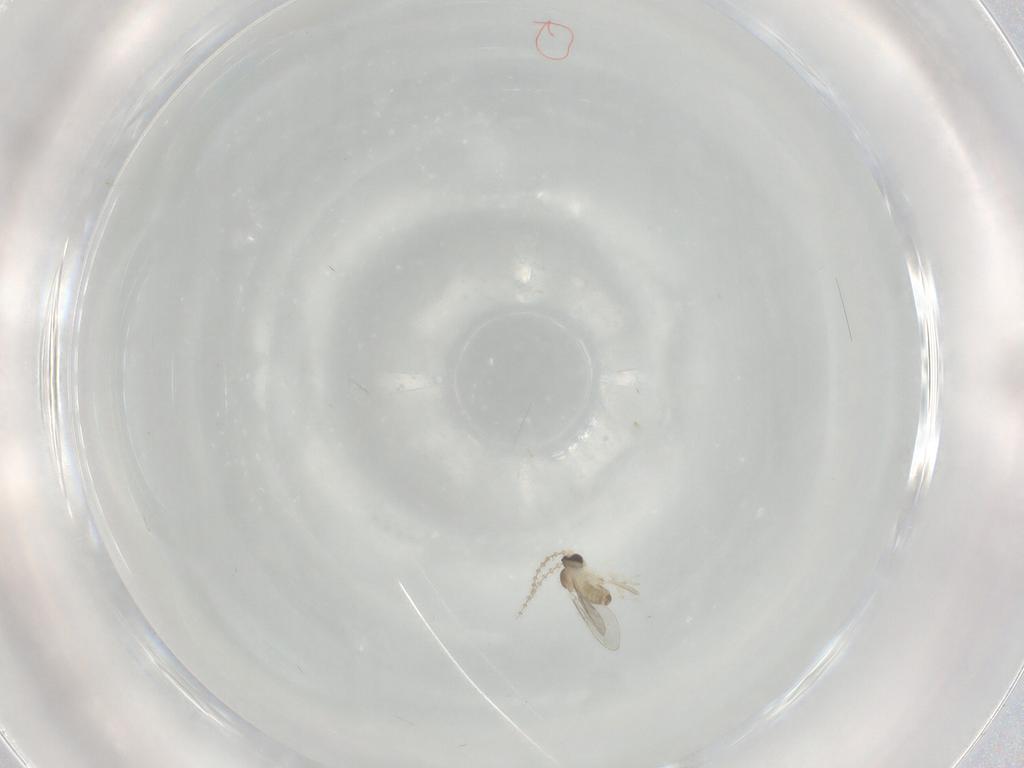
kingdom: Animalia
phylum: Arthropoda
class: Insecta
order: Diptera
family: Cecidomyiidae
